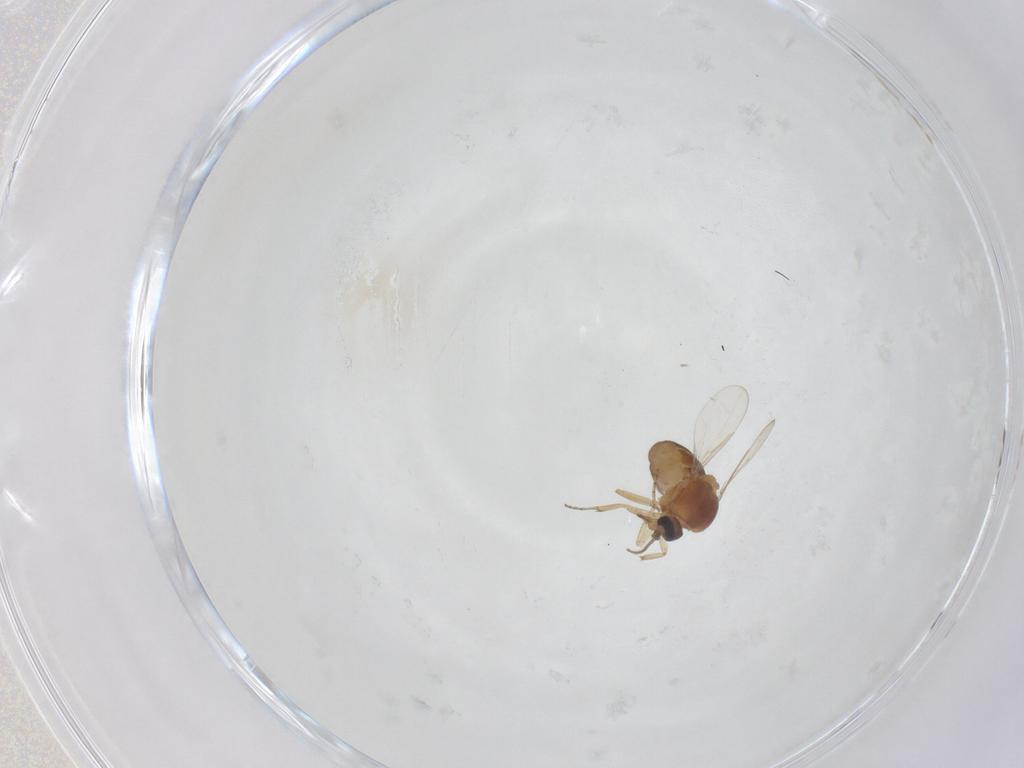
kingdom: Animalia
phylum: Arthropoda
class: Insecta
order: Diptera
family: Ceratopogonidae
